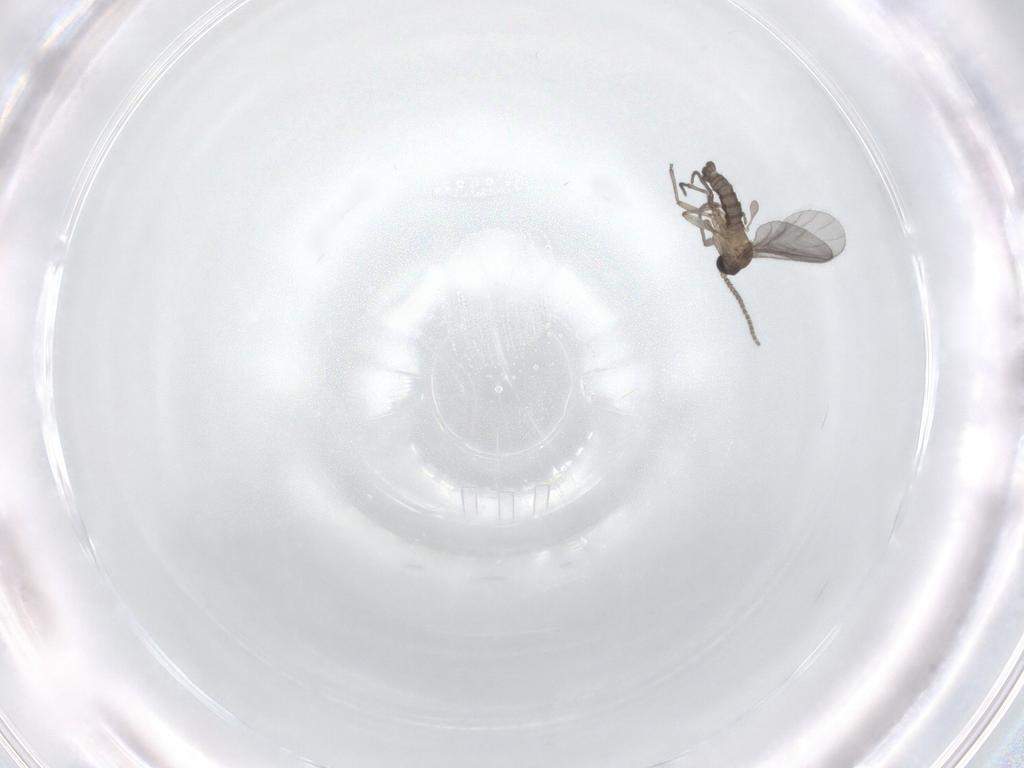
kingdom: Animalia
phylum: Arthropoda
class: Insecta
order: Diptera
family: Sciaridae
